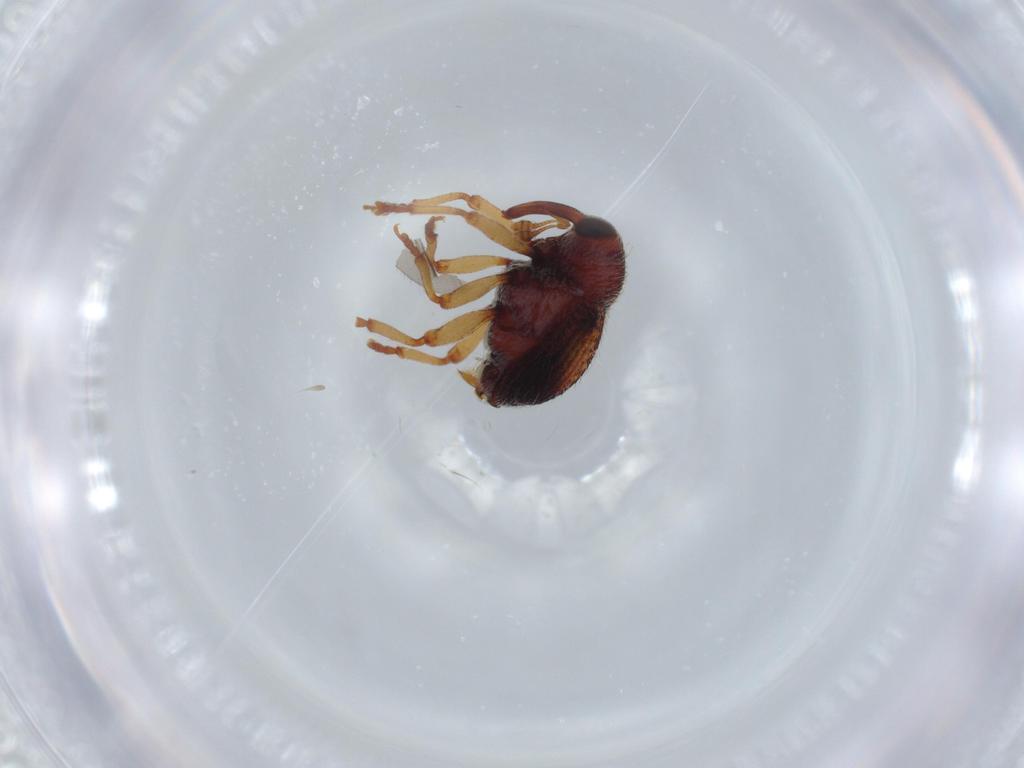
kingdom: Animalia
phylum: Arthropoda
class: Insecta
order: Coleoptera
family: Curculionidae
